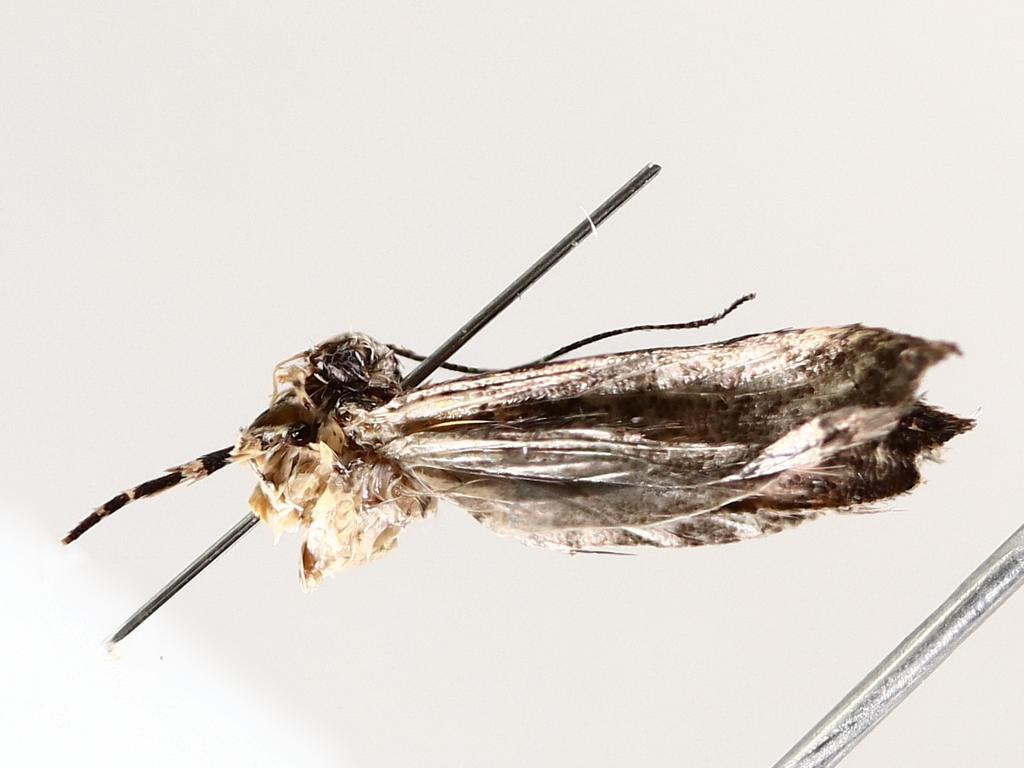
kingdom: Animalia
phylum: Arthropoda
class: Insecta
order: Diptera
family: Chironomidae
